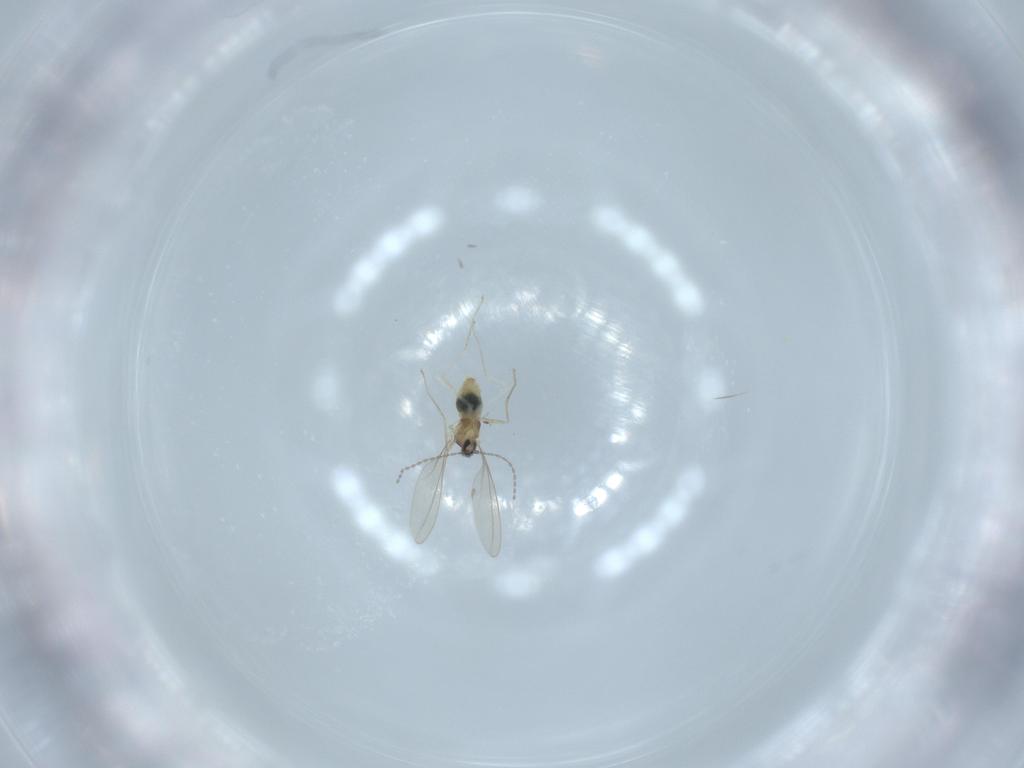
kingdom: Animalia
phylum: Arthropoda
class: Insecta
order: Diptera
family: Cecidomyiidae
